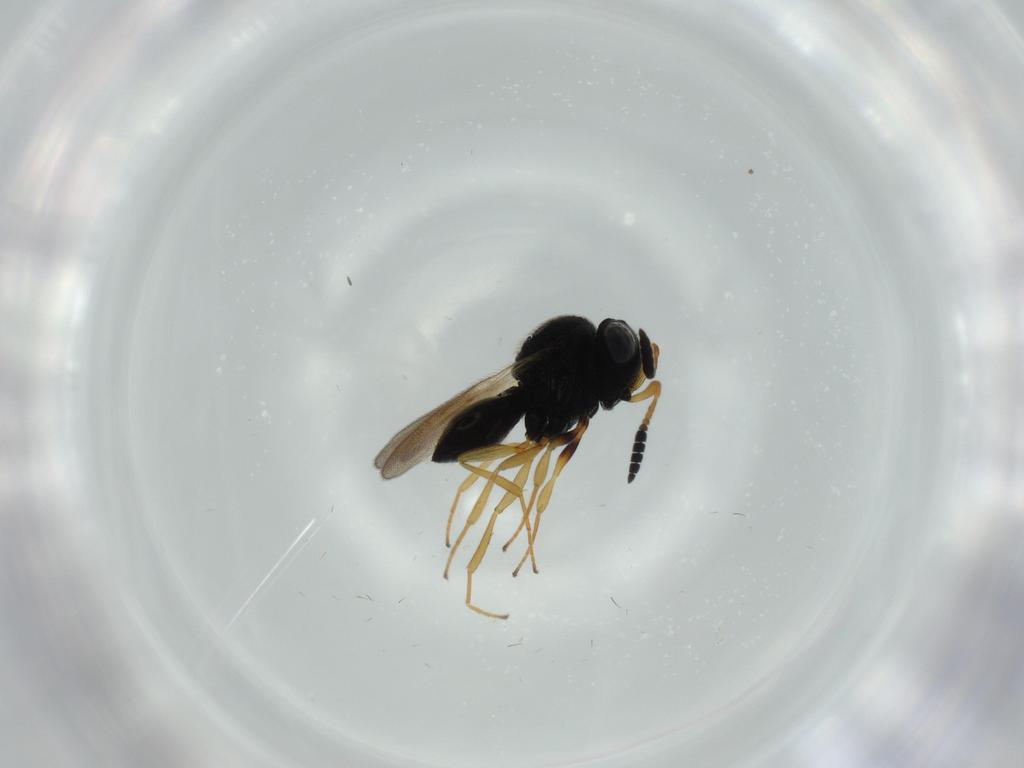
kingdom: Animalia
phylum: Arthropoda
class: Insecta
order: Hymenoptera
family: Scelionidae
